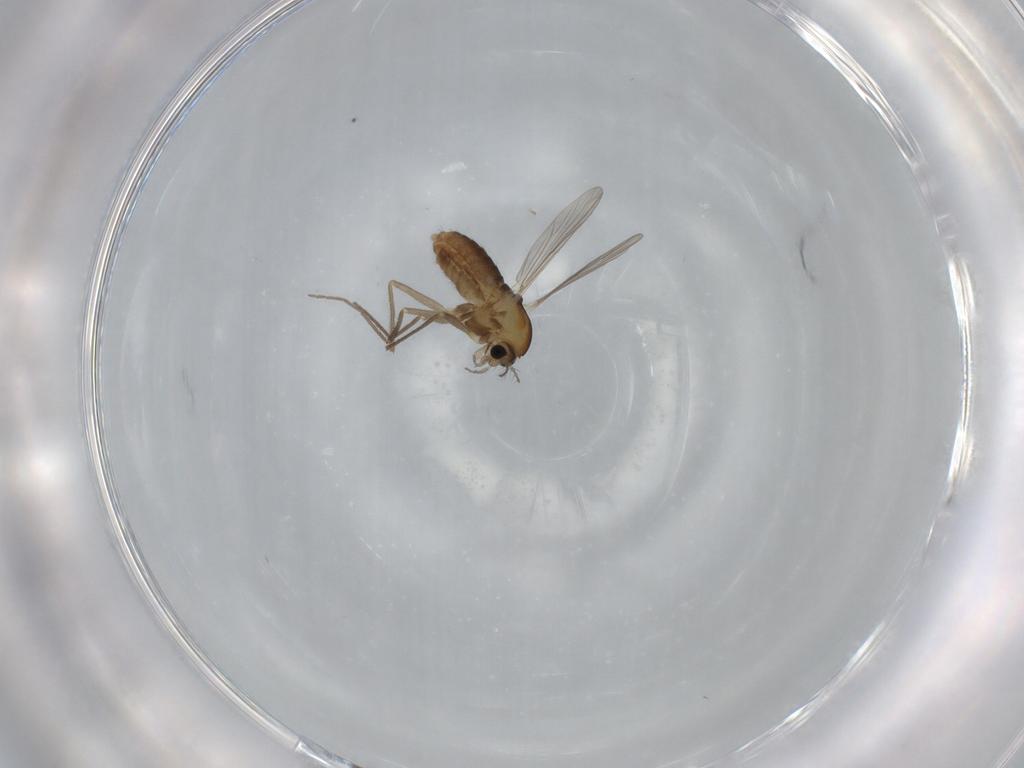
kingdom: Animalia
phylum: Arthropoda
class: Insecta
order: Diptera
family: Chironomidae
